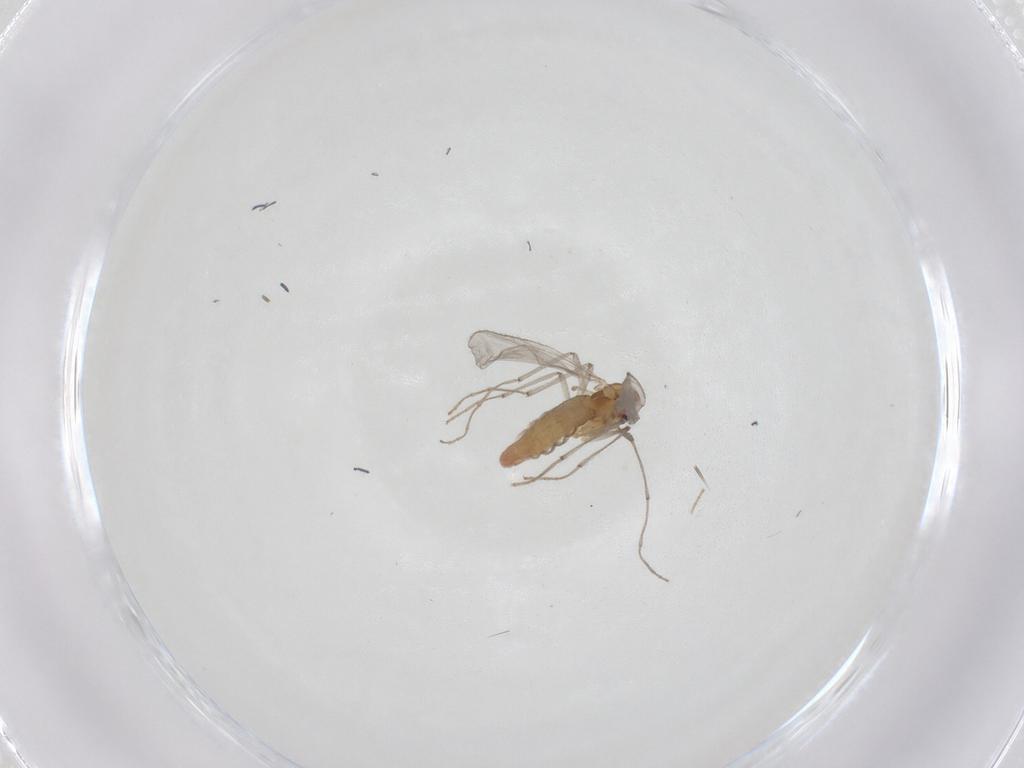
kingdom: Animalia
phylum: Arthropoda
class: Insecta
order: Diptera
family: Chironomidae
